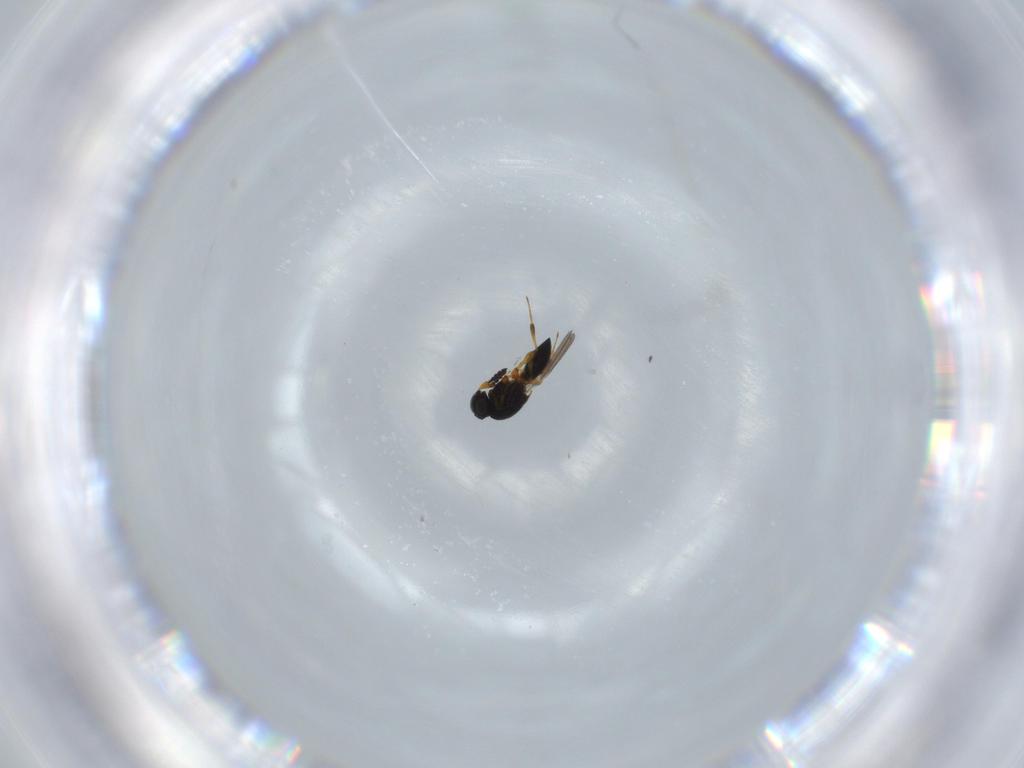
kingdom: Animalia
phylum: Arthropoda
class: Insecta
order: Hymenoptera
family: Platygastridae
